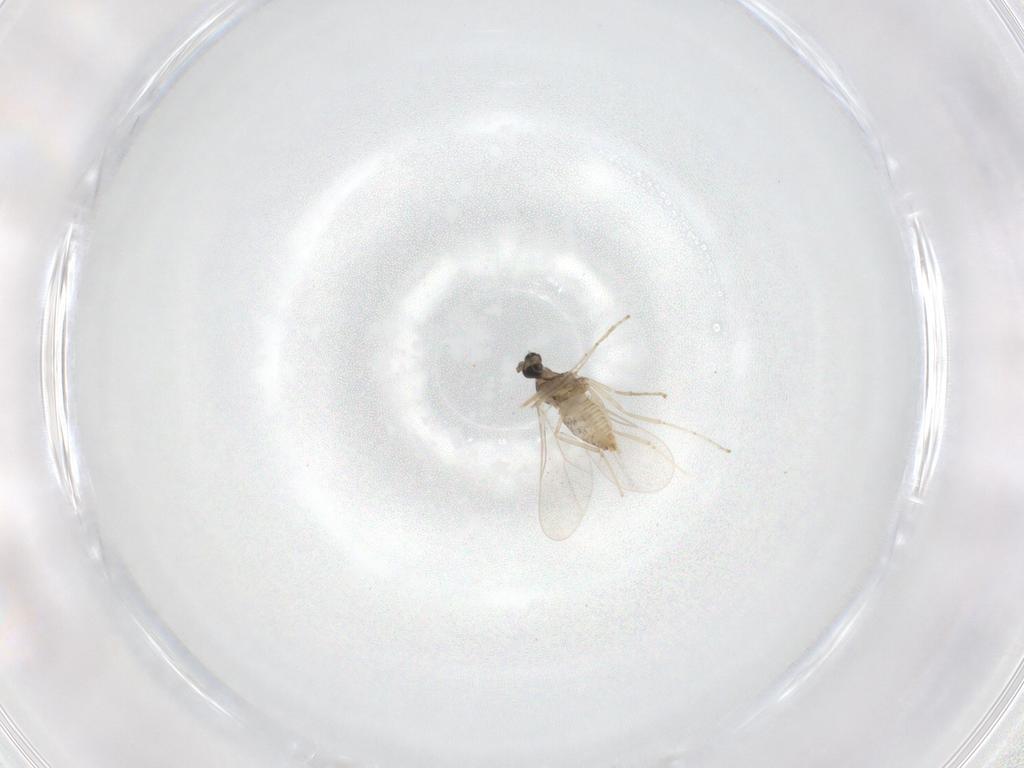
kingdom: Animalia
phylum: Arthropoda
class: Insecta
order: Diptera
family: Cecidomyiidae
